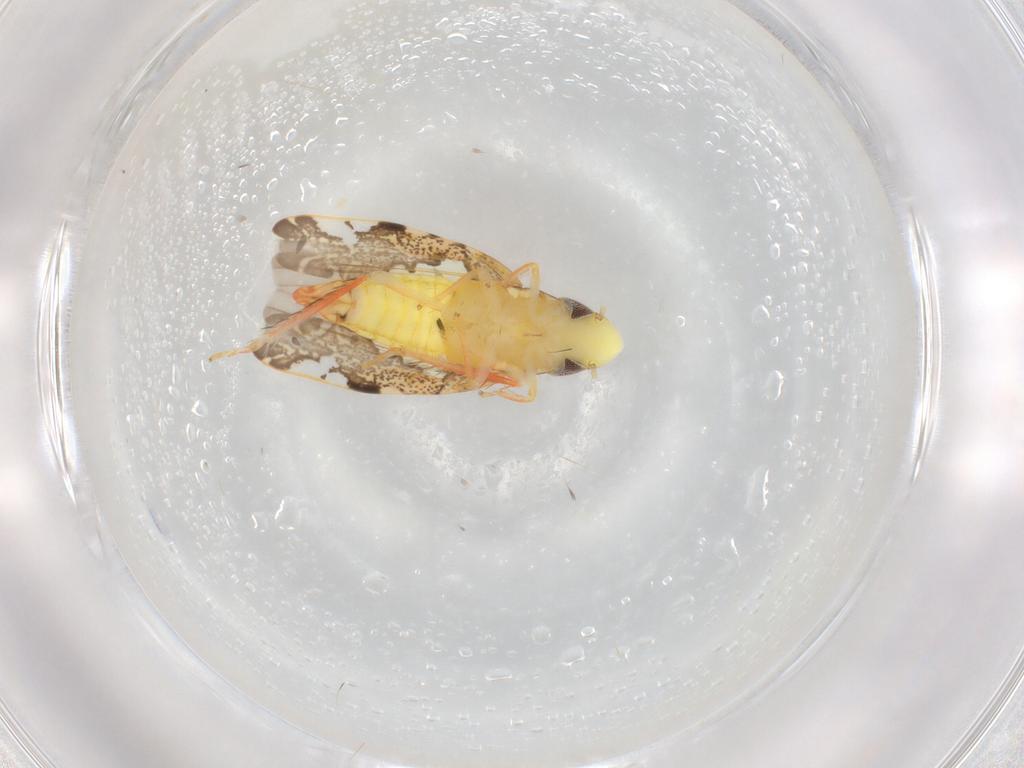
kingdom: Animalia
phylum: Arthropoda
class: Insecta
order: Hemiptera
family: Cicadellidae
